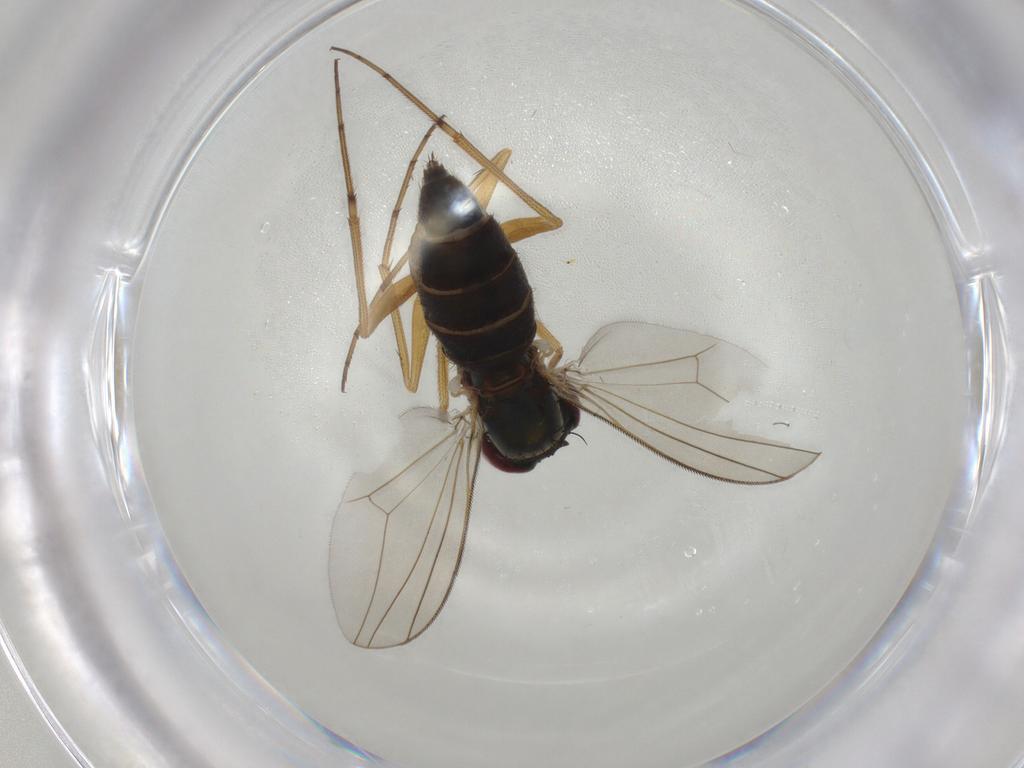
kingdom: Animalia
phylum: Arthropoda
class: Insecta
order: Diptera
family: Dolichopodidae
